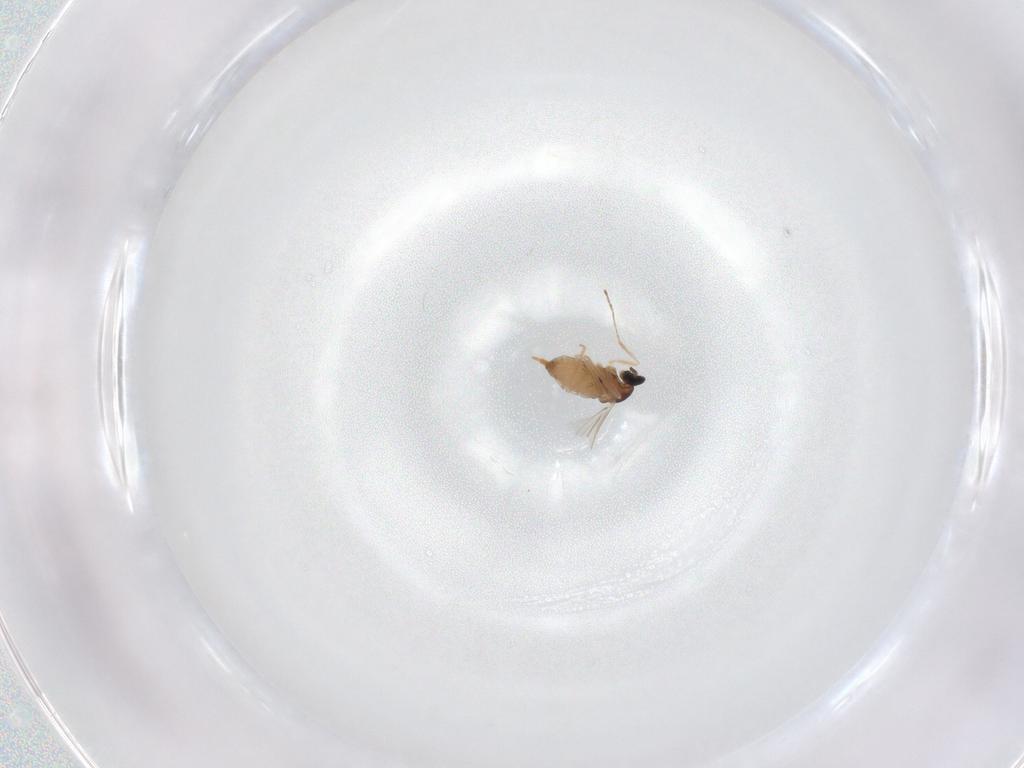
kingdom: Animalia
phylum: Arthropoda
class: Insecta
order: Diptera
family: Cecidomyiidae
